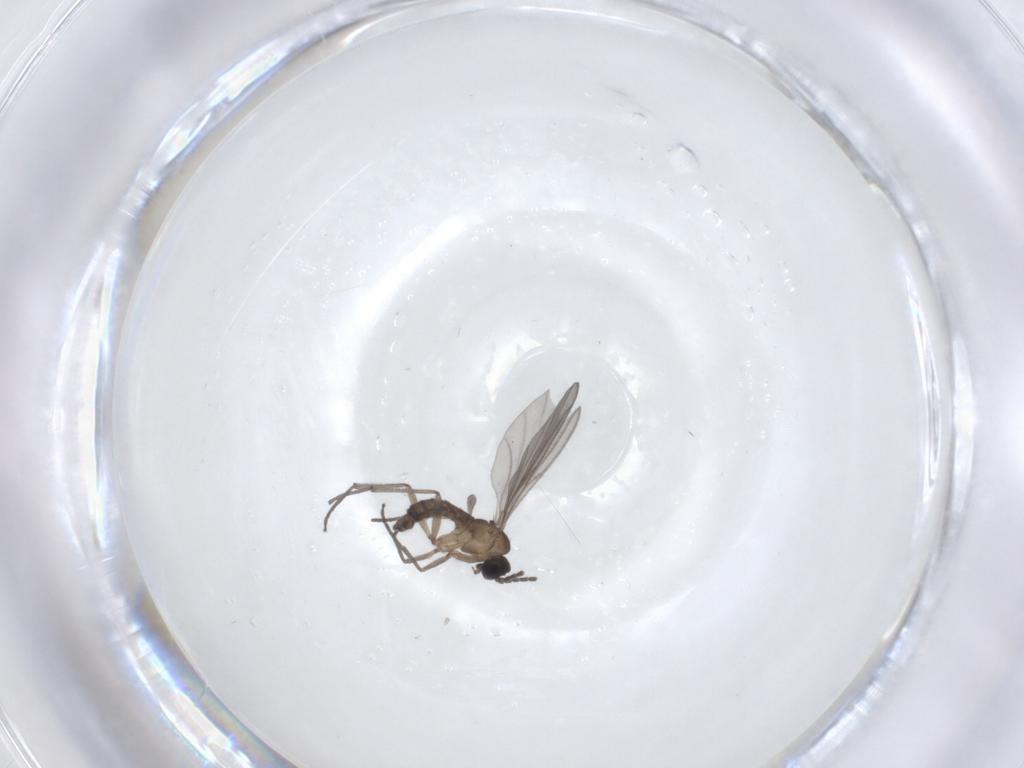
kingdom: Animalia
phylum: Arthropoda
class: Insecta
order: Diptera
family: Sciaridae
